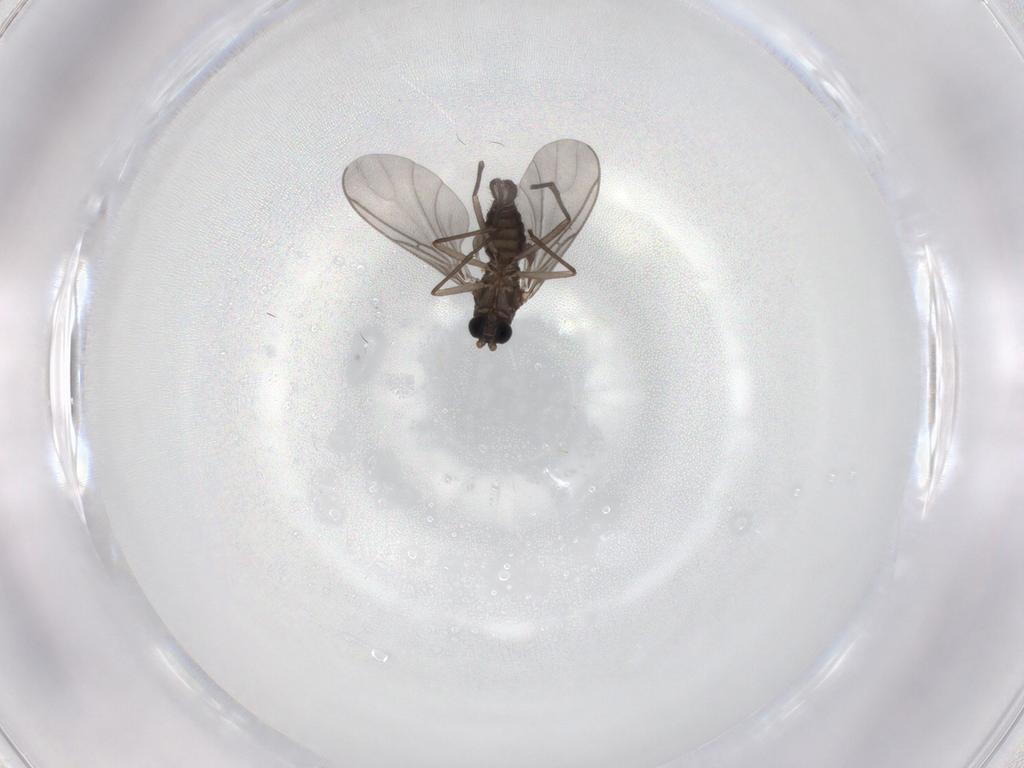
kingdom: Animalia
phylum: Arthropoda
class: Insecta
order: Diptera
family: Sciaridae
